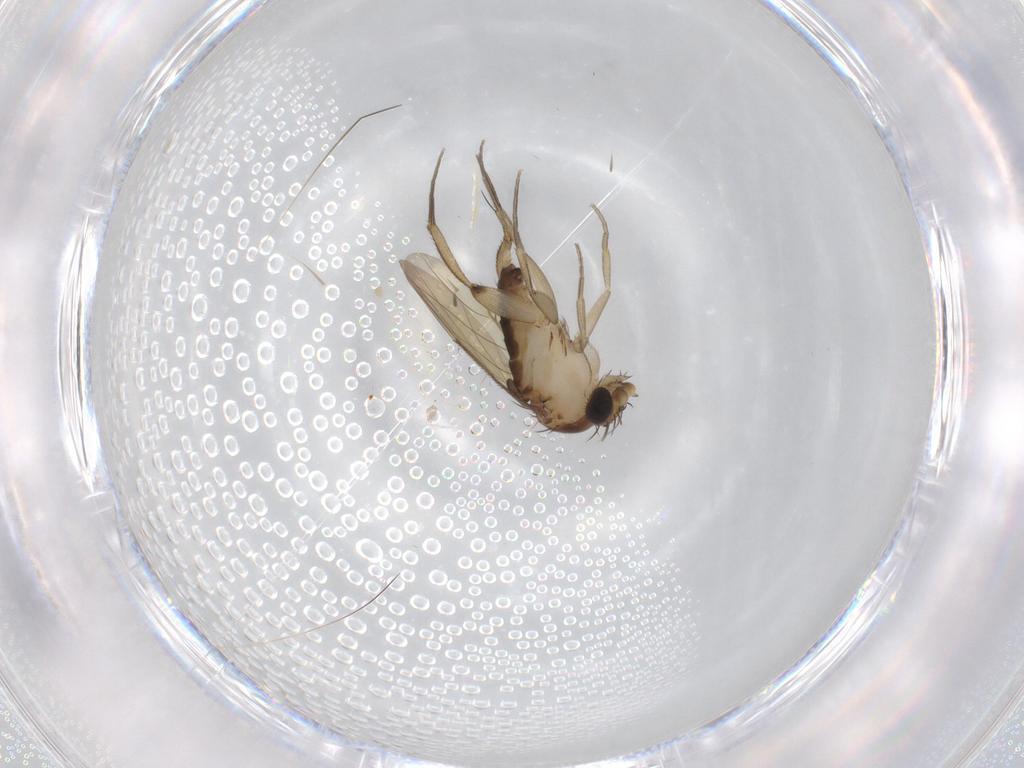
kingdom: Animalia
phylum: Arthropoda
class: Insecta
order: Diptera
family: Phoridae
